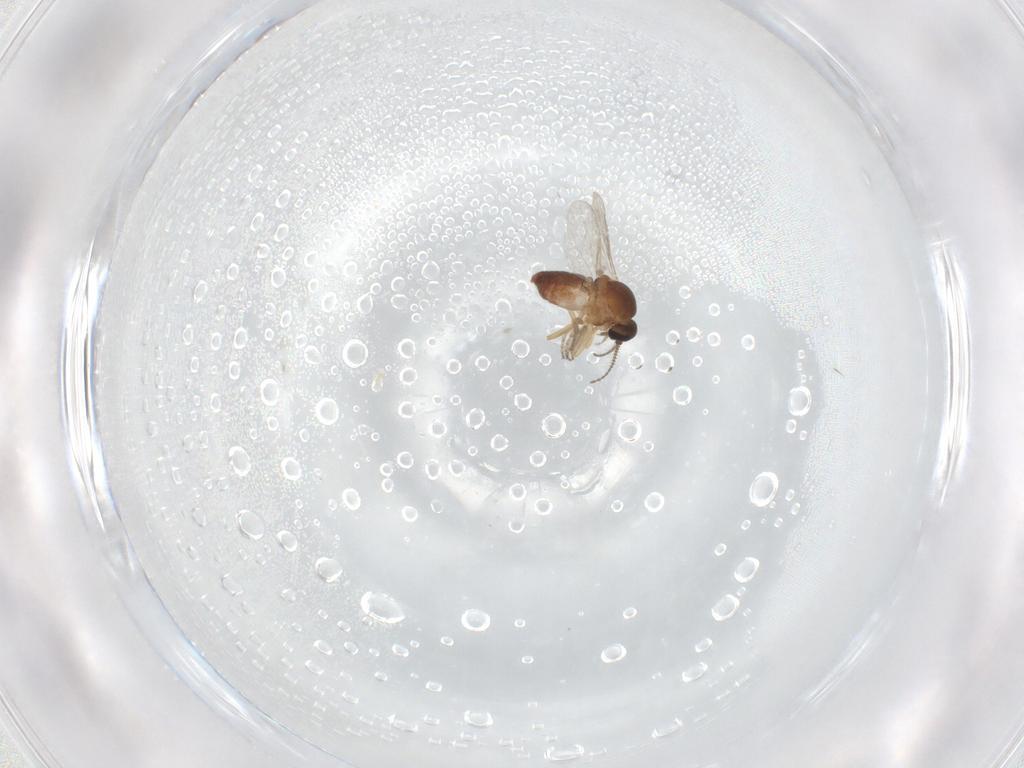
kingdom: Animalia
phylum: Arthropoda
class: Insecta
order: Diptera
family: Ceratopogonidae
